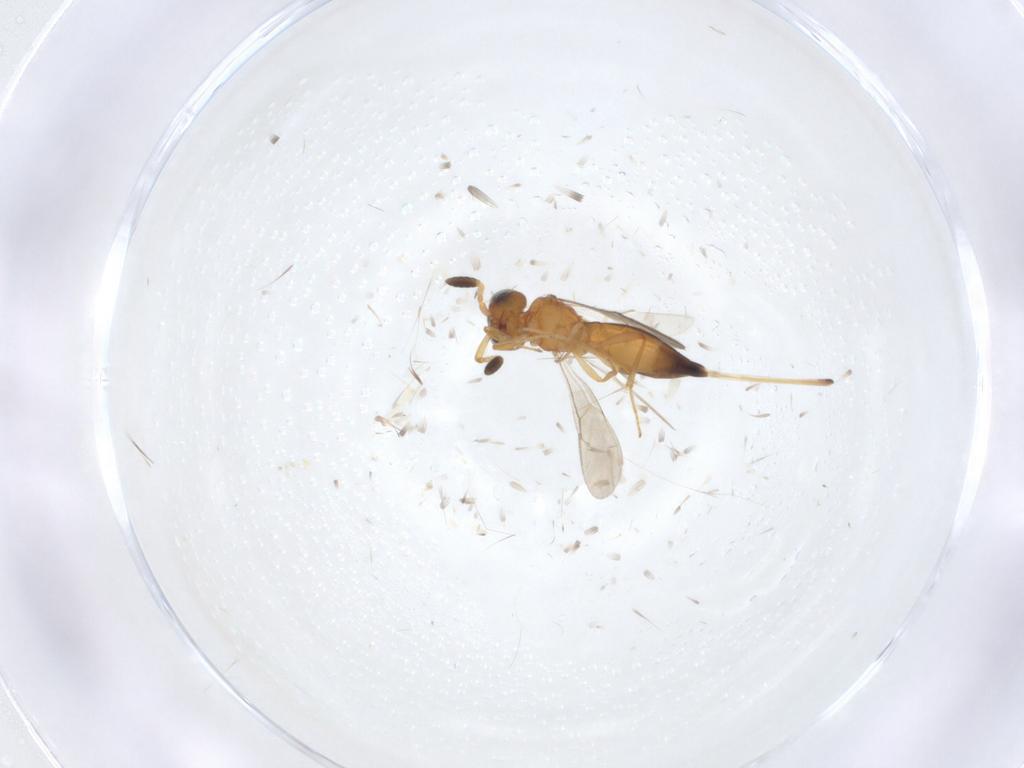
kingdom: Animalia
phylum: Arthropoda
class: Insecta
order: Hymenoptera
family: Scelionidae
